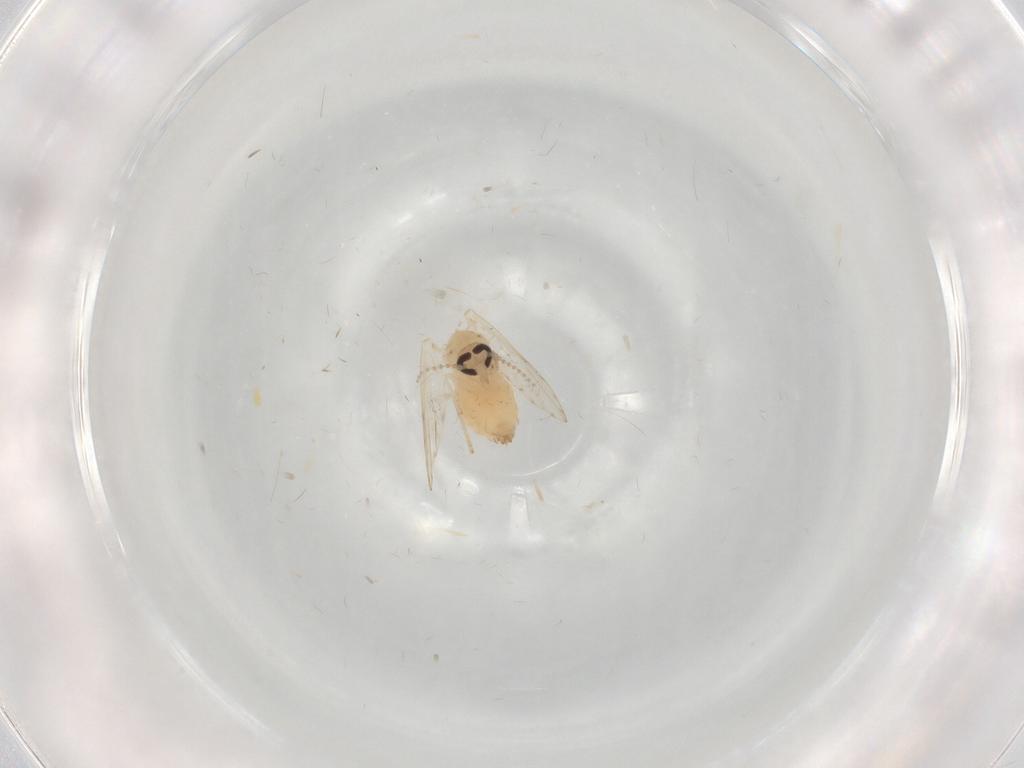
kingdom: Animalia
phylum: Arthropoda
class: Insecta
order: Diptera
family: Psychodidae
